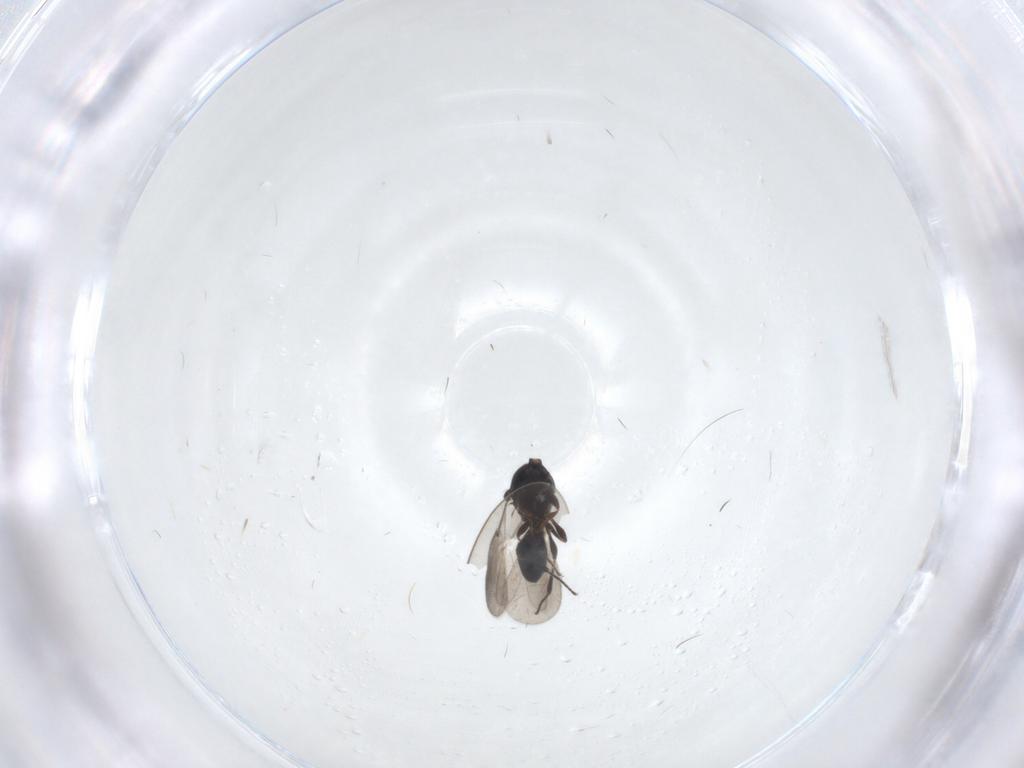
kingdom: Animalia
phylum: Arthropoda
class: Insecta
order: Hymenoptera
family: Platygastridae
